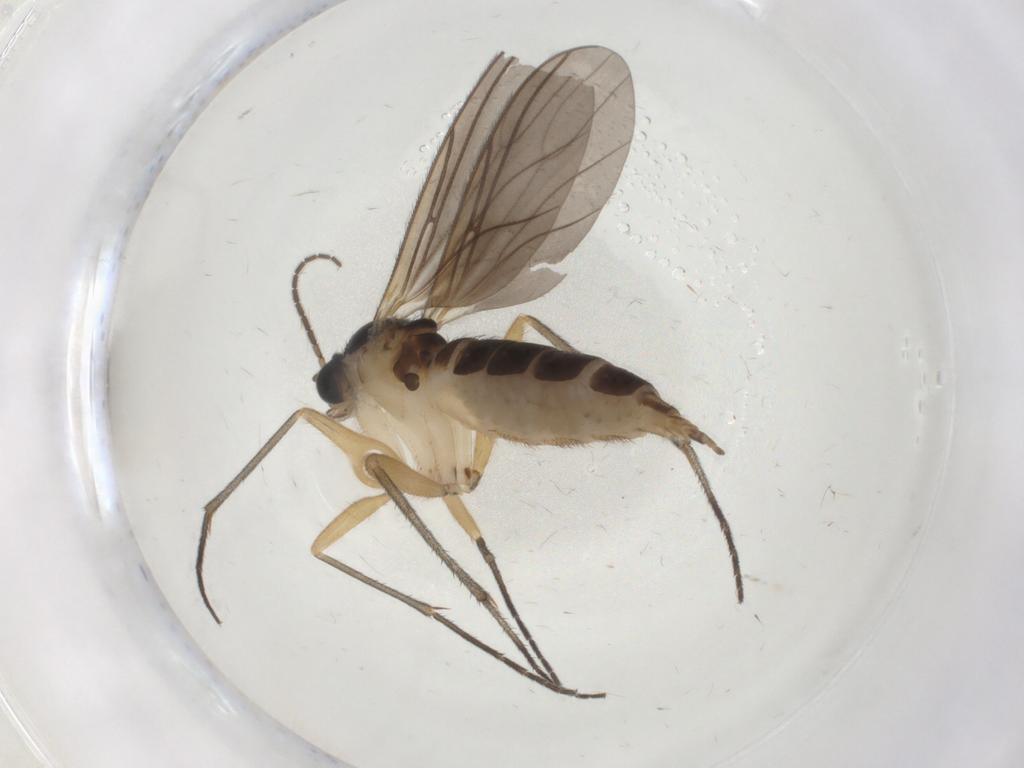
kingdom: Animalia
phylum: Arthropoda
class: Insecta
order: Diptera
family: Sciaridae
